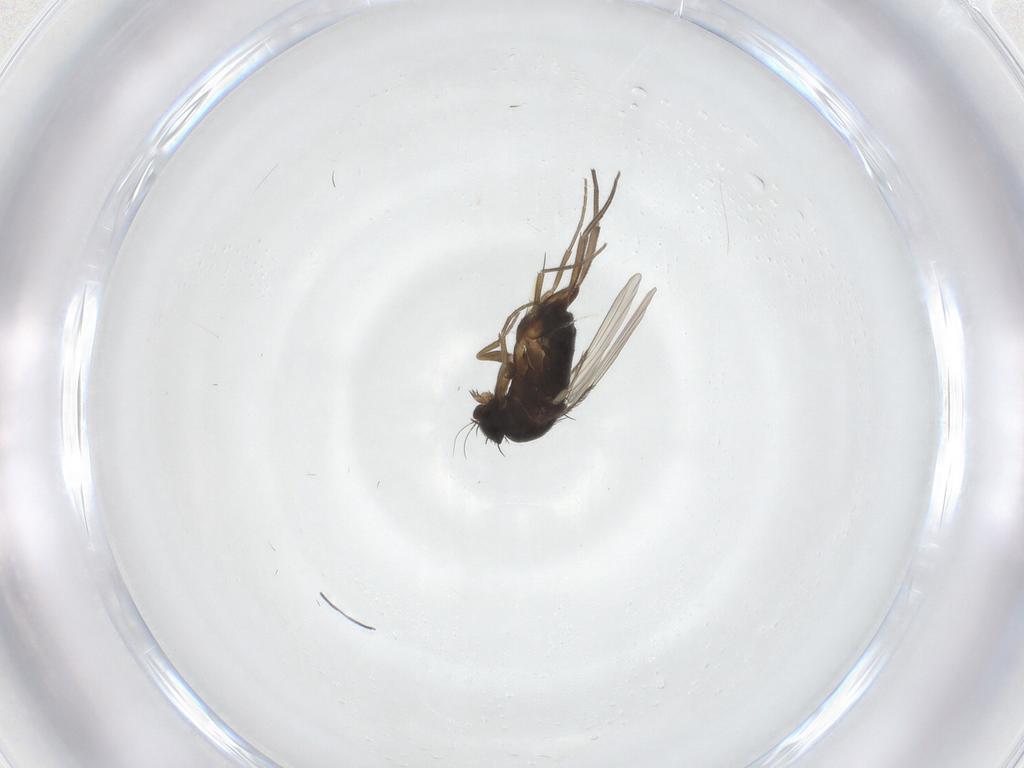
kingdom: Animalia
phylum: Arthropoda
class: Insecta
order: Diptera
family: Phoridae
